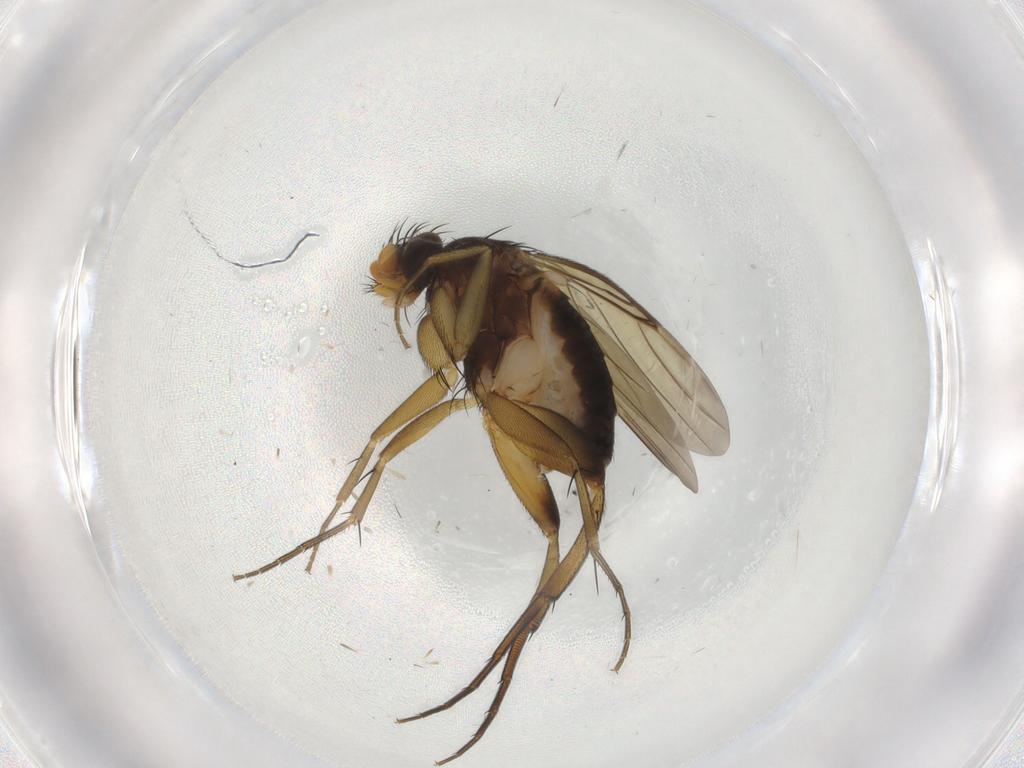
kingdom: Animalia
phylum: Arthropoda
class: Insecta
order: Diptera
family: Phoridae
